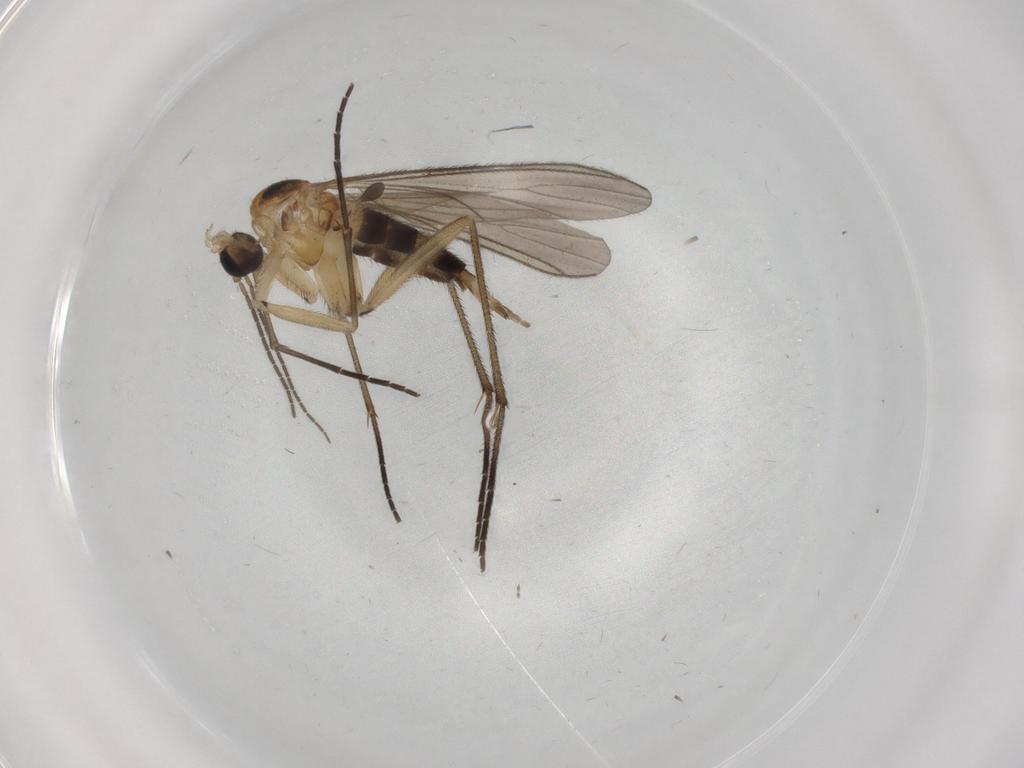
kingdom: Animalia
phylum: Arthropoda
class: Insecta
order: Diptera
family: Sciaridae
